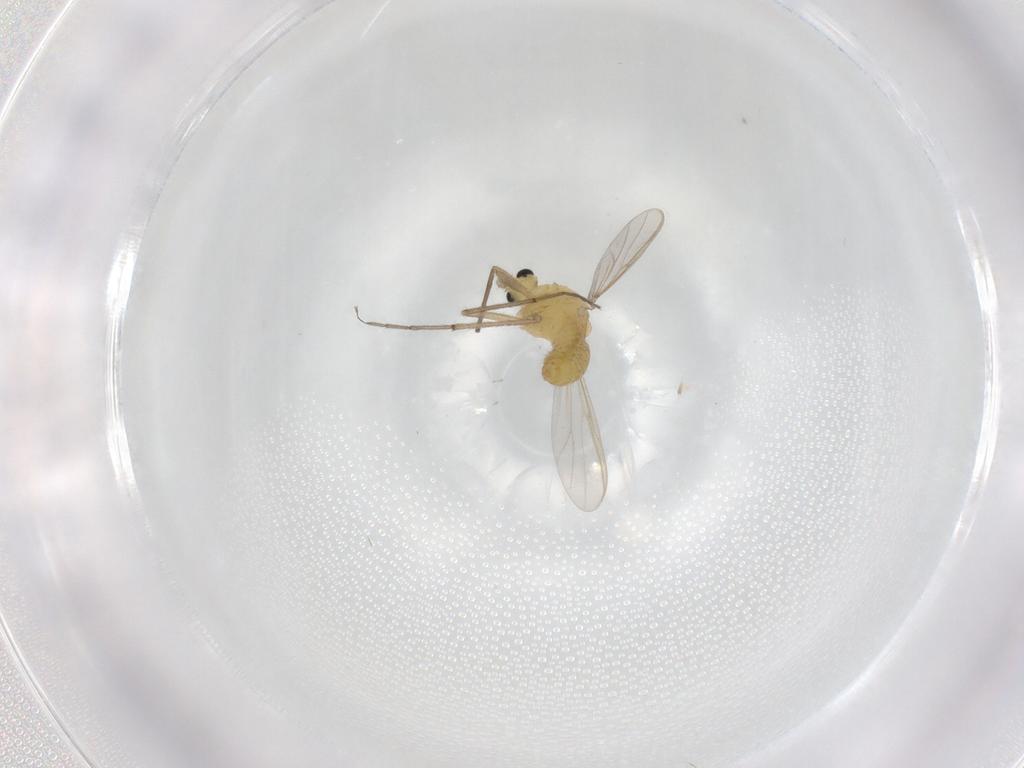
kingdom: Animalia
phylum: Arthropoda
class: Insecta
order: Diptera
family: Chironomidae
